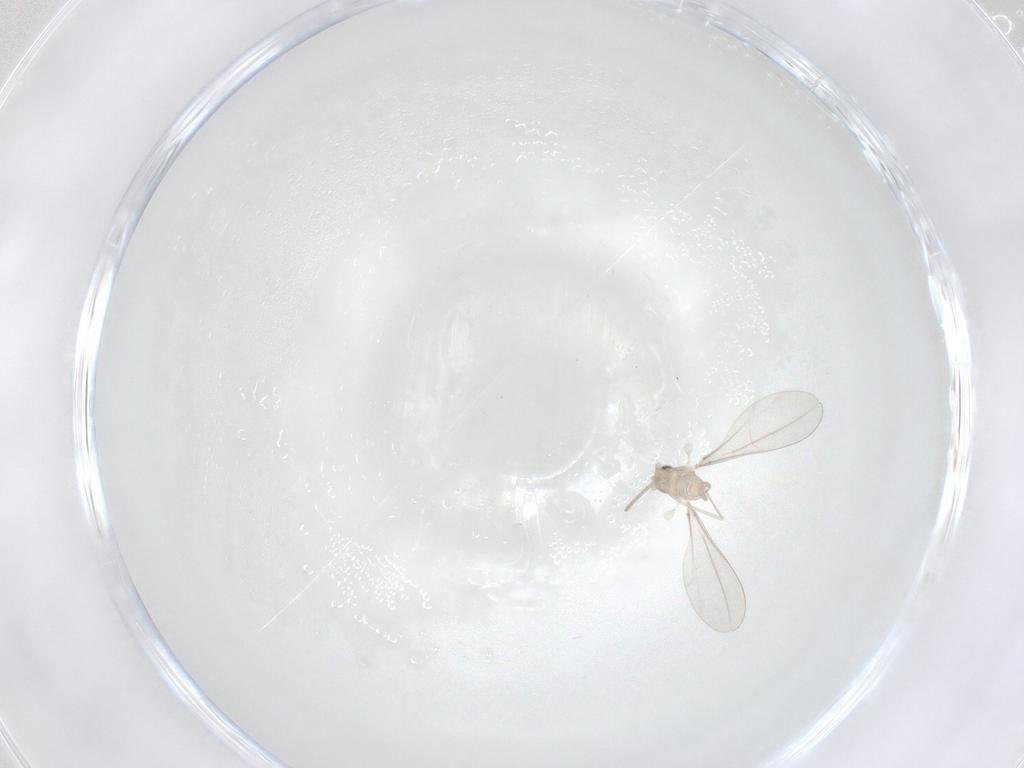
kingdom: Animalia
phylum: Arthropoda
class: Insecta
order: Diptera
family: Cecidomyiidae
